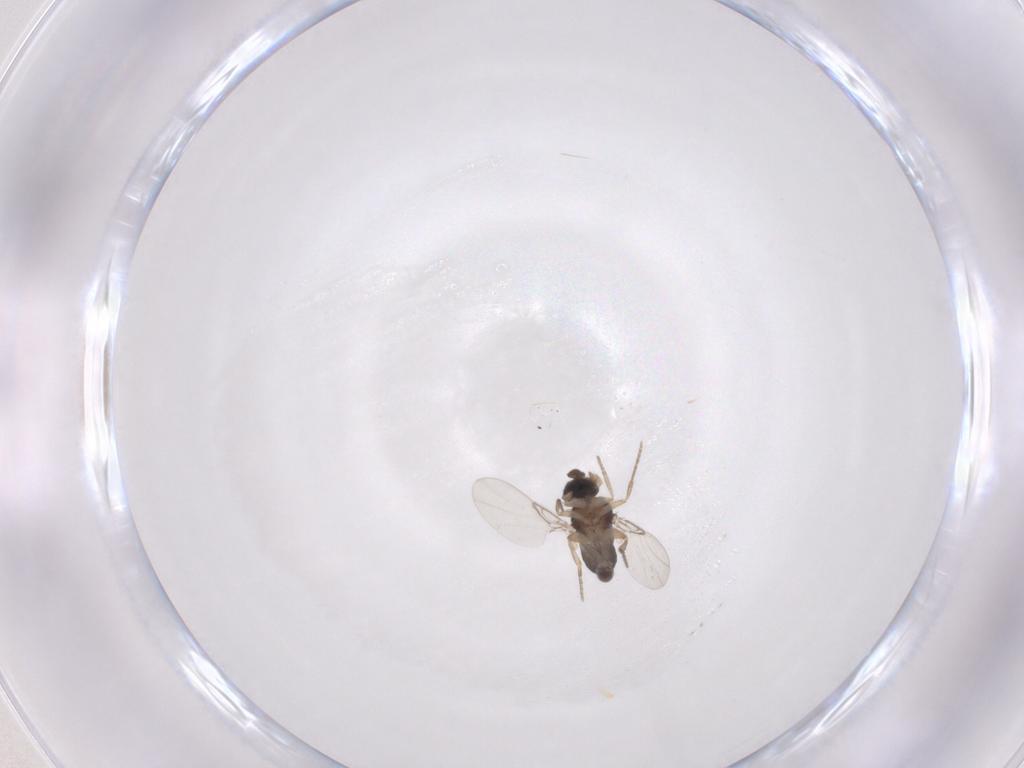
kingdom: Animalia
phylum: Arthropoda
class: Insecta
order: Diptera
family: Phoridae
